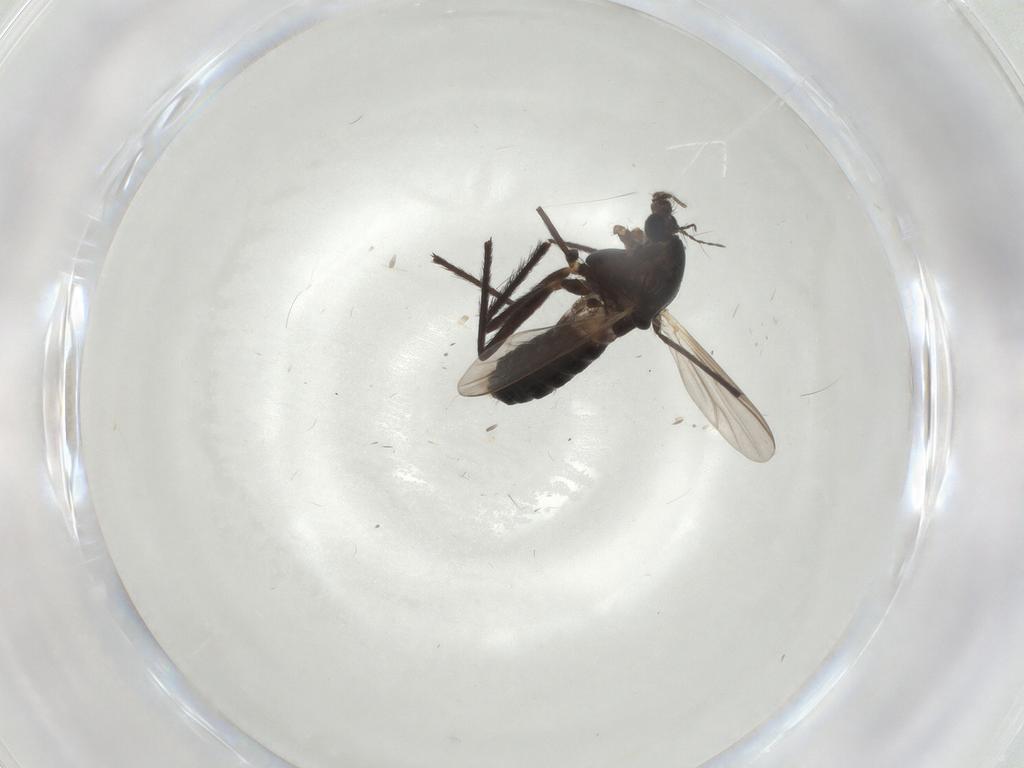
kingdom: Animalia
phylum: Arthropoda
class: Insecta
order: Diptera
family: Chironomidae
